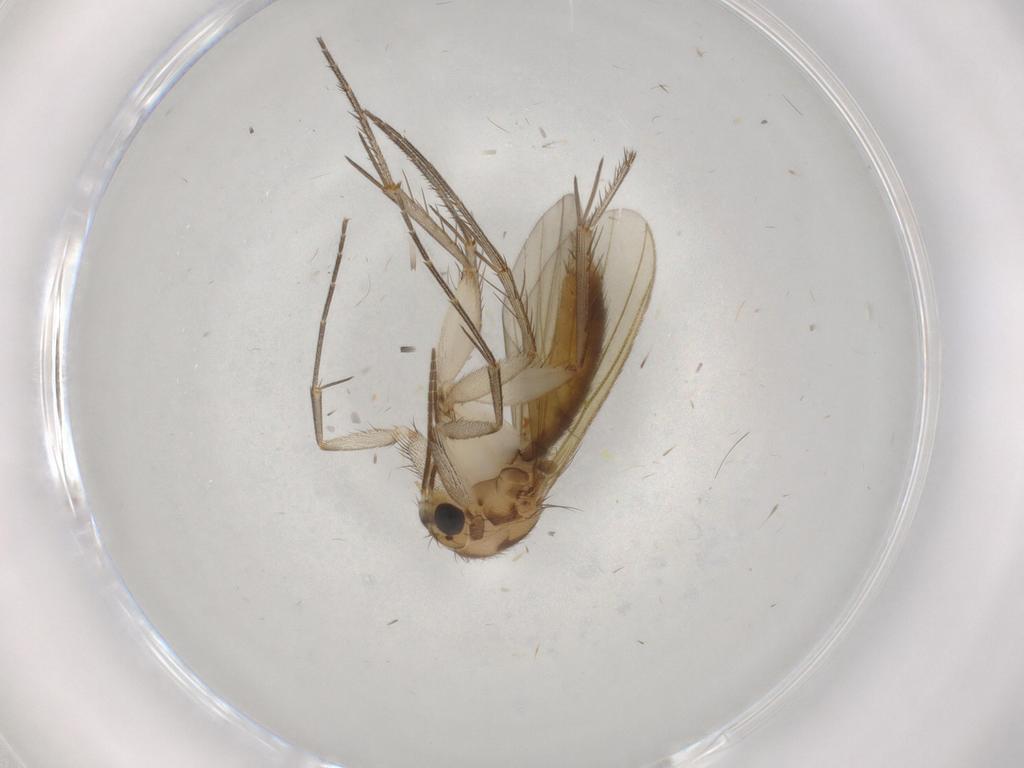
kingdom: Animalia
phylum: Arthropoda
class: Insecta
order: Diptera
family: Mycetophilidae
